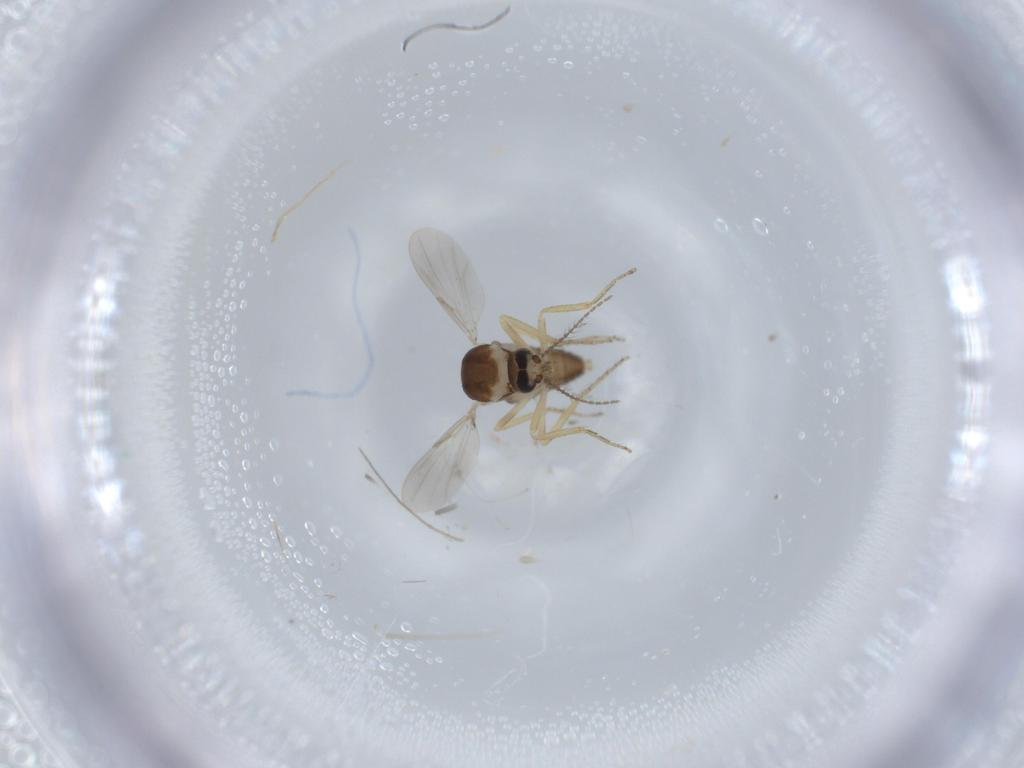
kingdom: Animalia
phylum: Arthropoda
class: Insecta
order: Diptera
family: Ceratopogonidae
